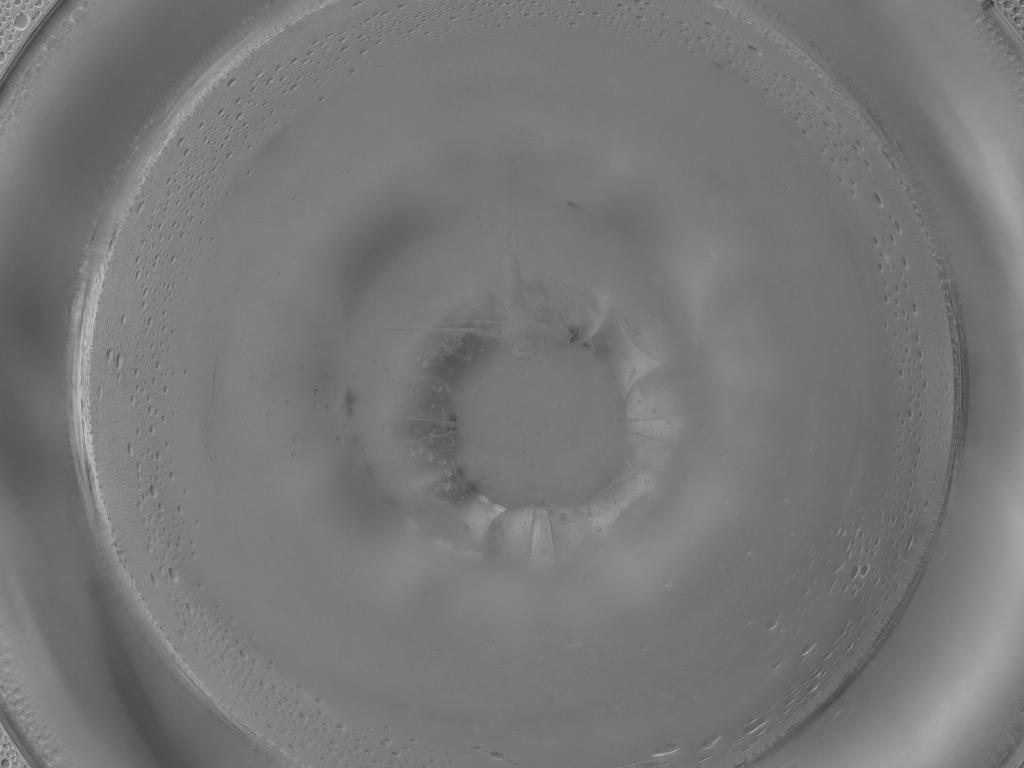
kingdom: Animalia
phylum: Arthropoda
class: Insecta
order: Diptera
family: Cecidomyiidae
